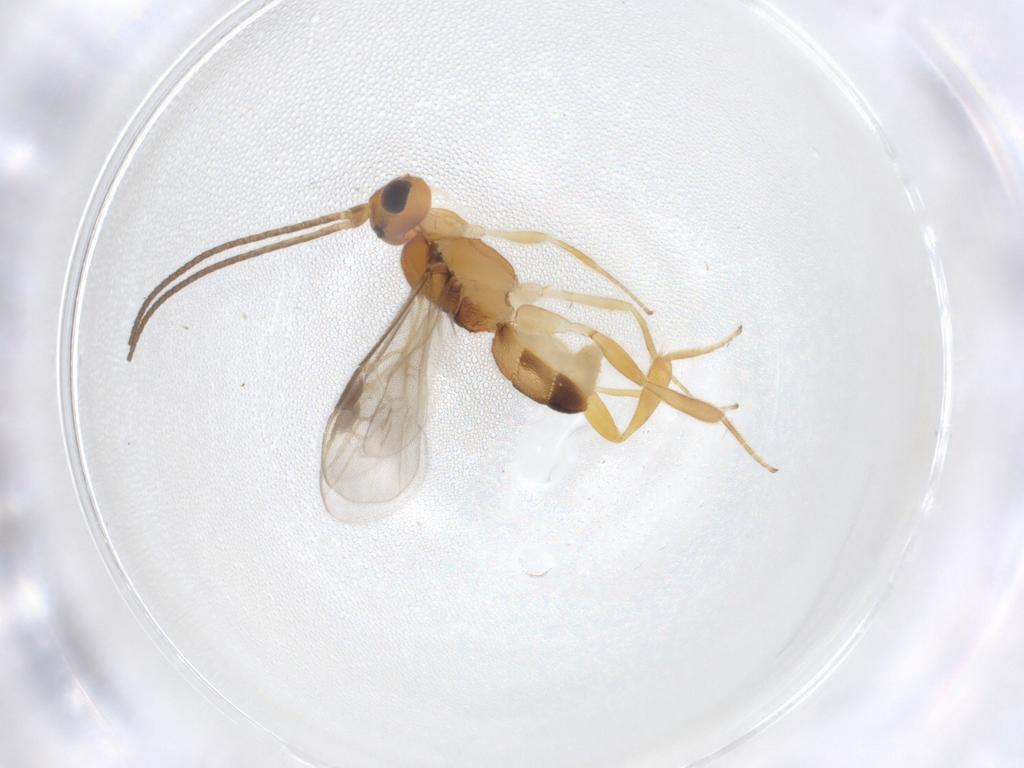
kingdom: Animalia
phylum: Arthropoda
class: Insecta
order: Hymenoptera
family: Braconidae
